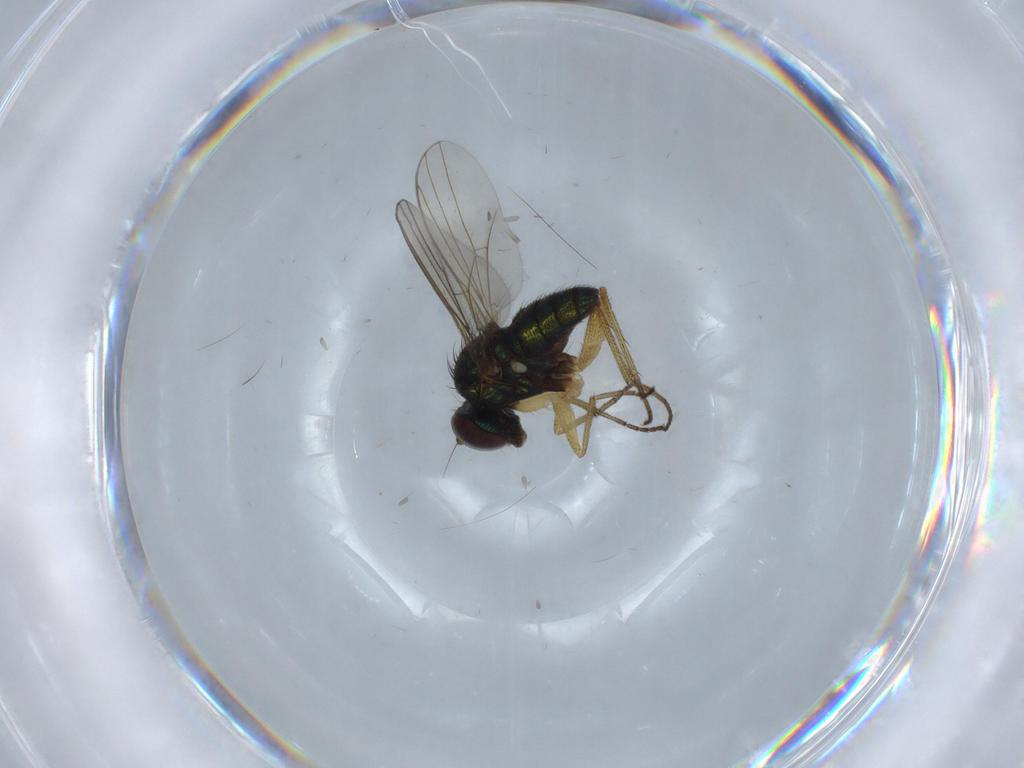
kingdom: Animalia
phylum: Arthropoda
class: Insecta
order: Diptera
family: Dolichopodidae
